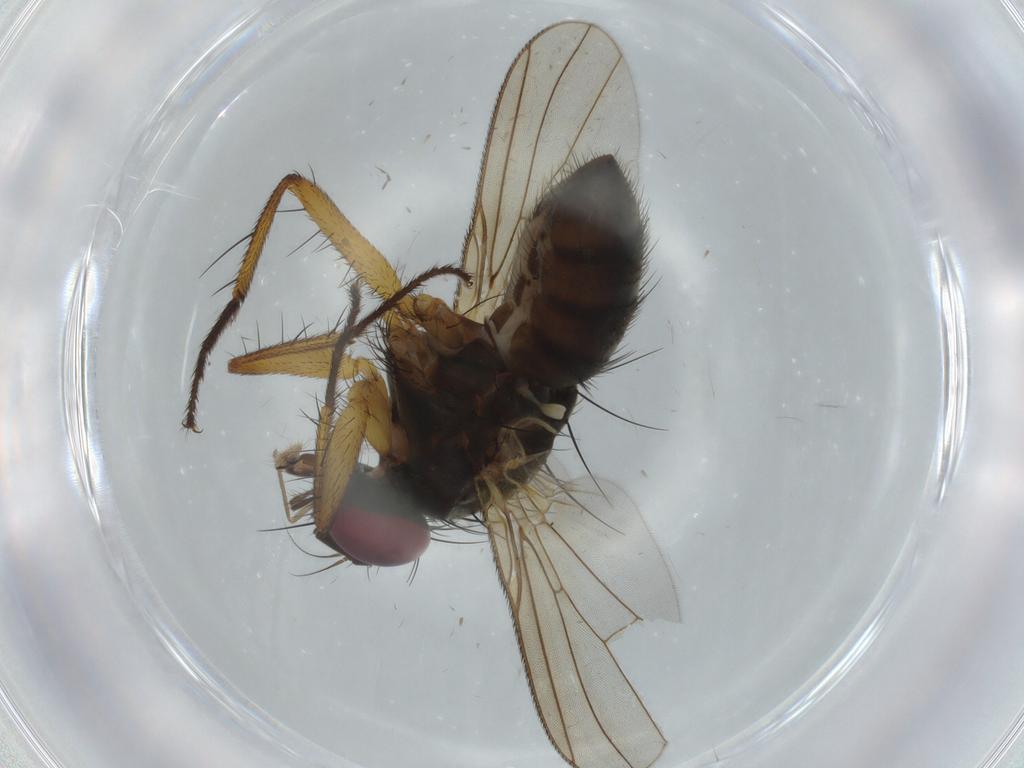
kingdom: Animalia
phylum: Arthropoda
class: Insecta
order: Diptera
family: Muscidae
